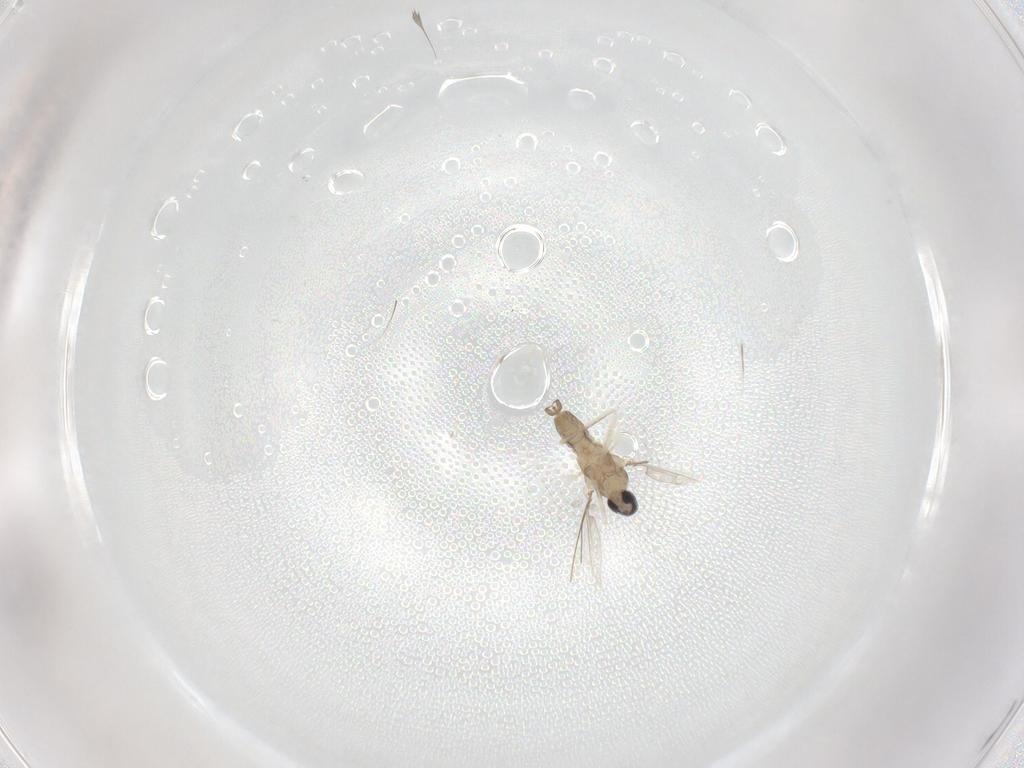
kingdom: Animalia
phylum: Arthropoda
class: Insecta
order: Diptera
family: Cecidomyiidae
